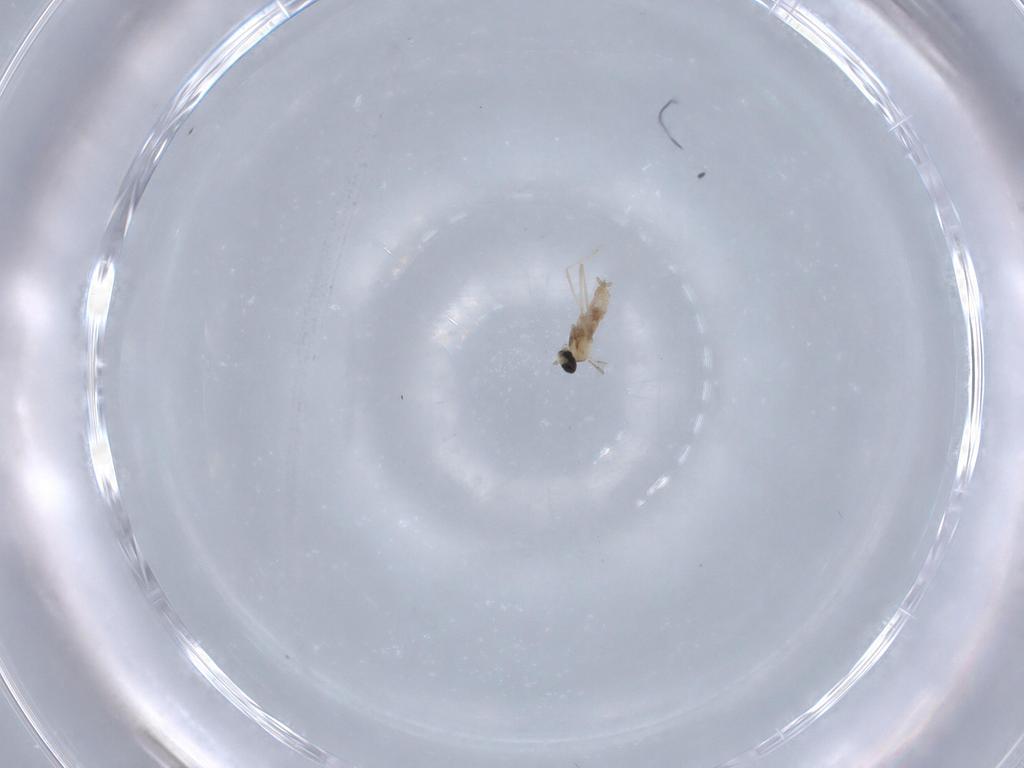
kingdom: Animalia
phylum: Arthropoda
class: Insecta
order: Diptera
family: Cecidomyiidae
